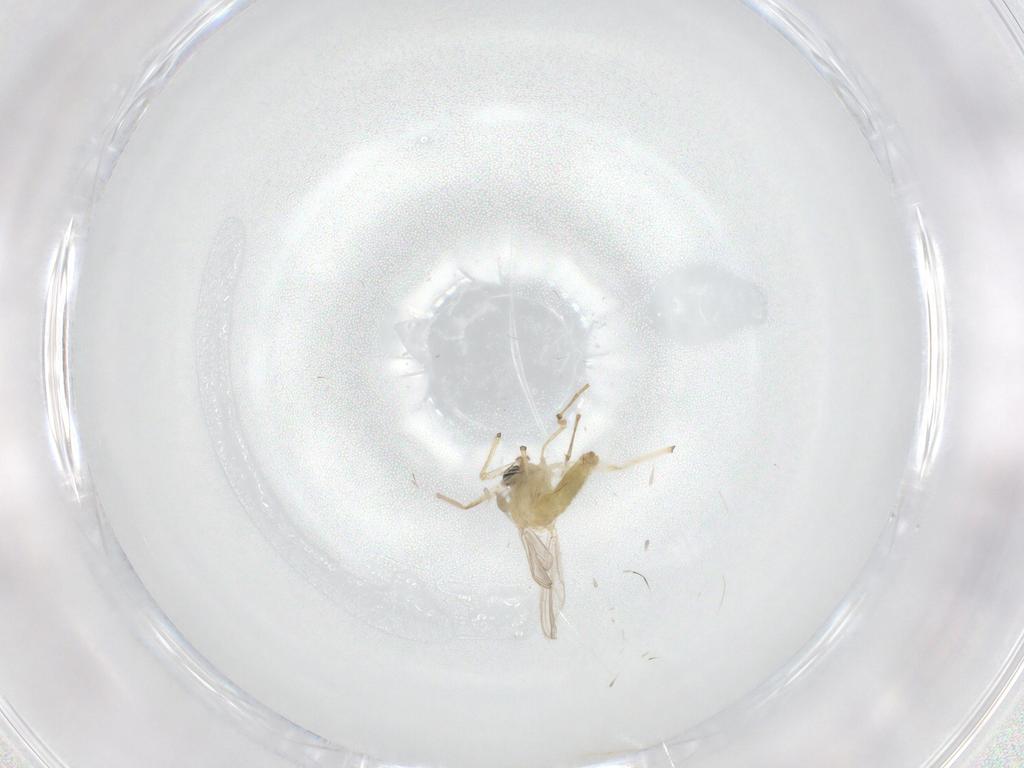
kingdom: Animalia
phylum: Arthropoda
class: Insecta
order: Diptera
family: Chironomidae
